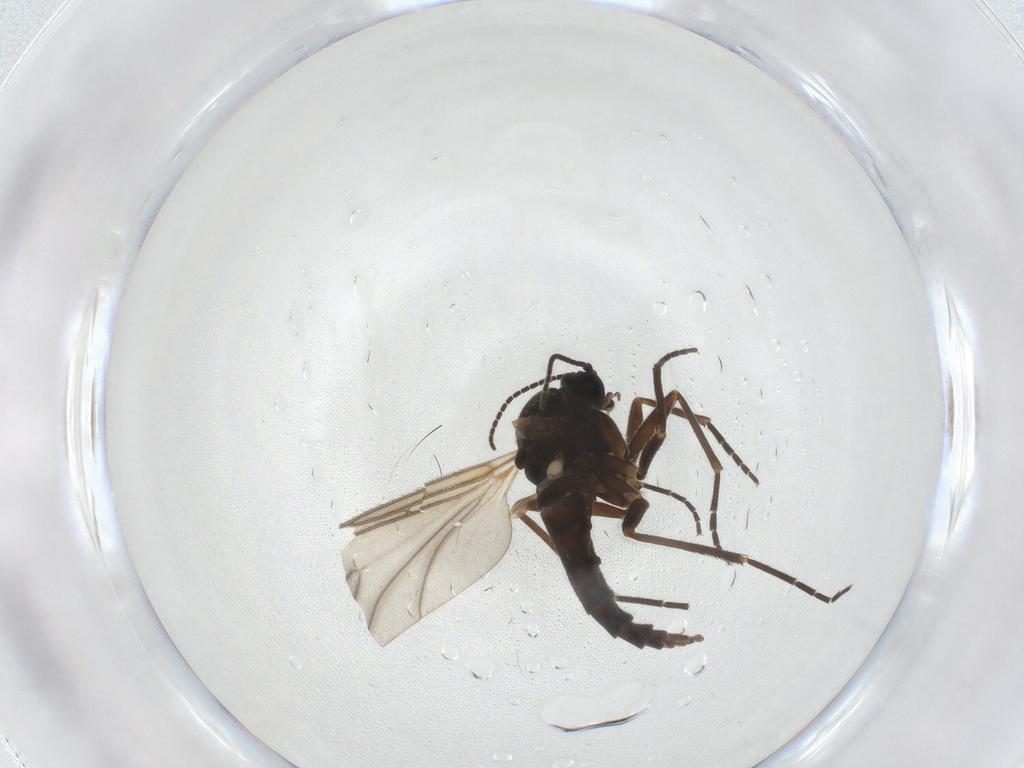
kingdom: Animalia
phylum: Arthropoda
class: Insecta
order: Diptera
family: Sciaridae
